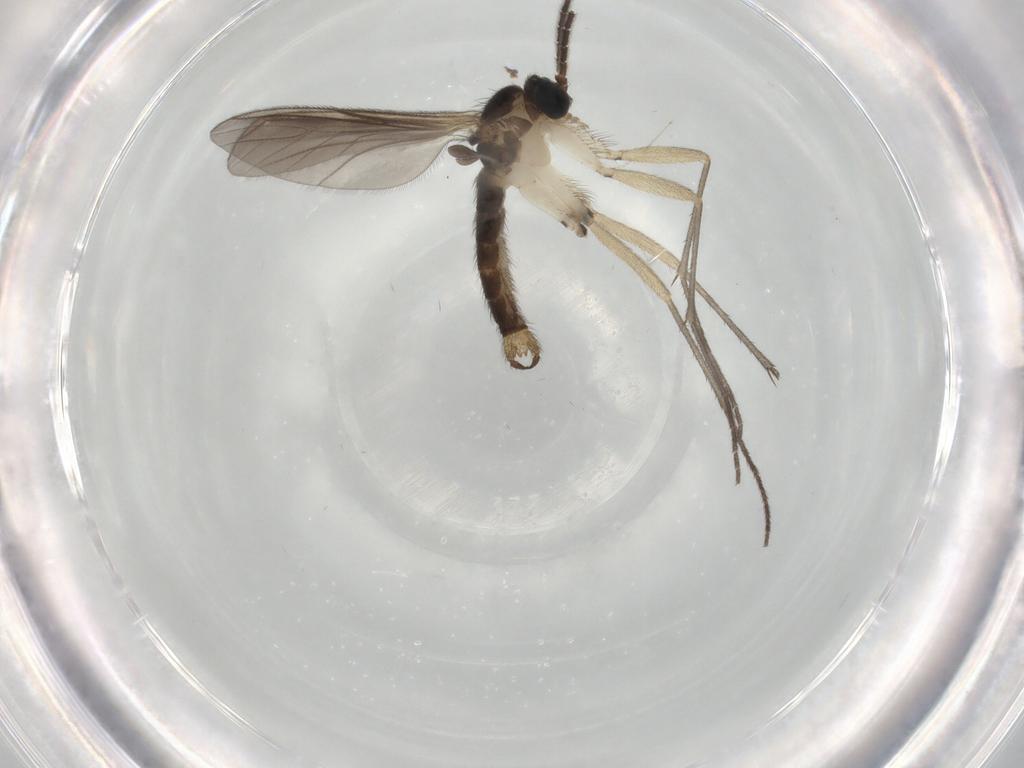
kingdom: Animalia
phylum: Arthropoda
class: Insecta
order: Diptera
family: Sciaridae
